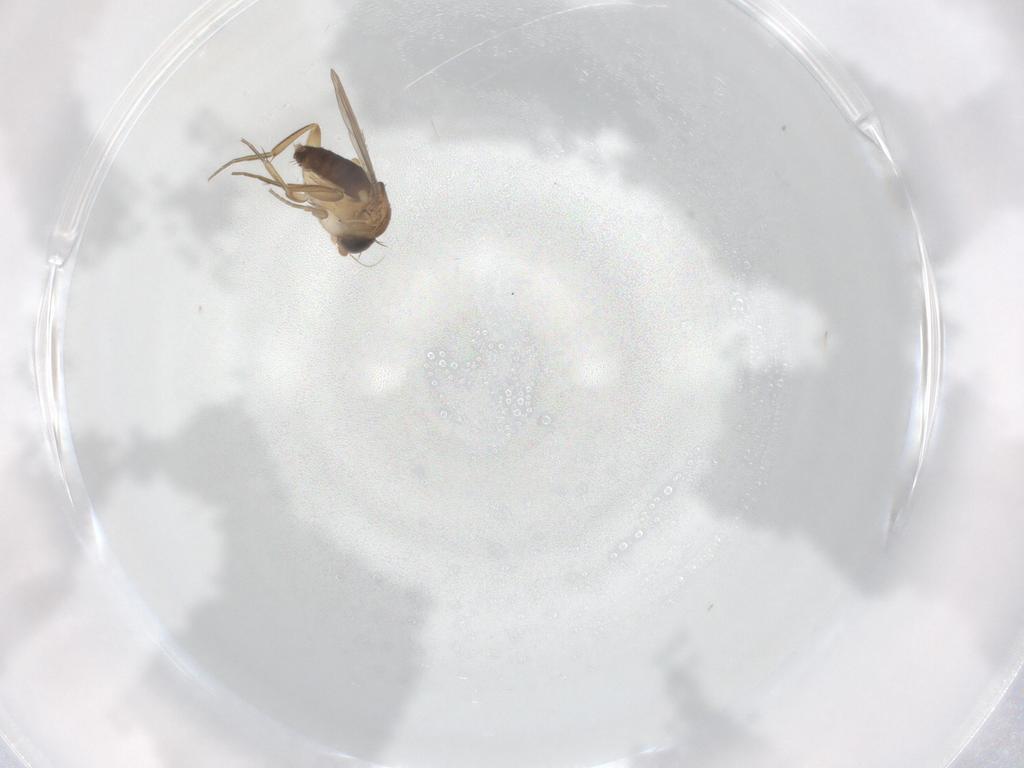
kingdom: Animalia
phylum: Arthropoda
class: Insecta
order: Diptera
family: Phoridae
